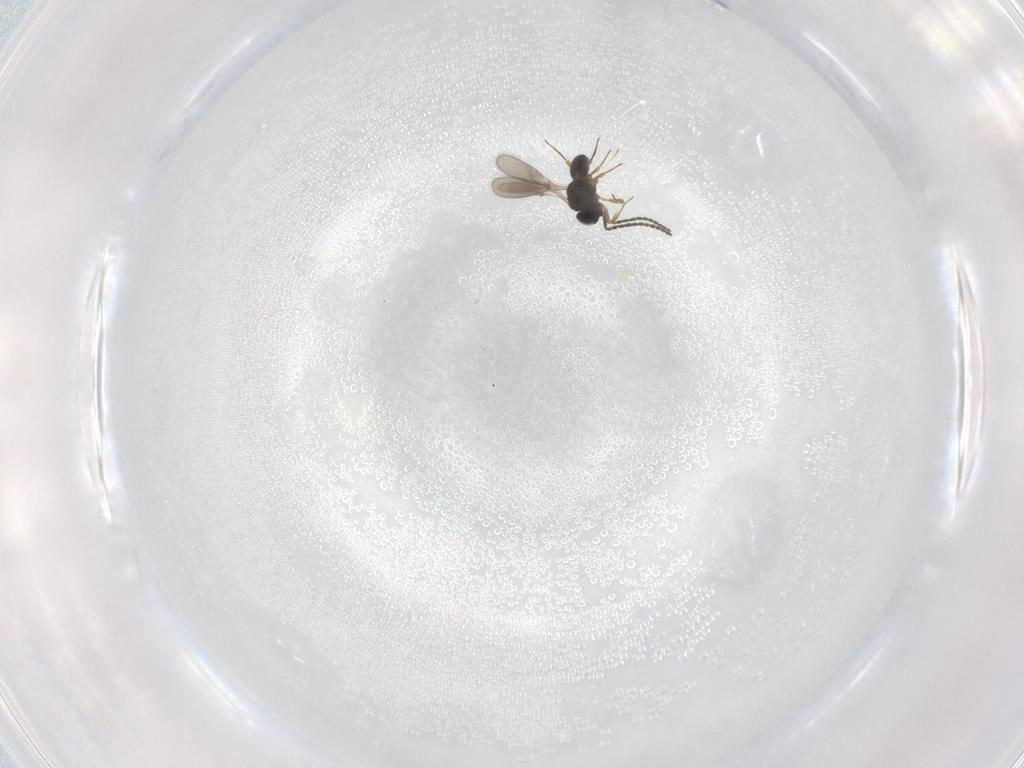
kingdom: Animalia
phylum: Arthropoda
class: Insecta
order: Hymenoptera
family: Scelionidae
